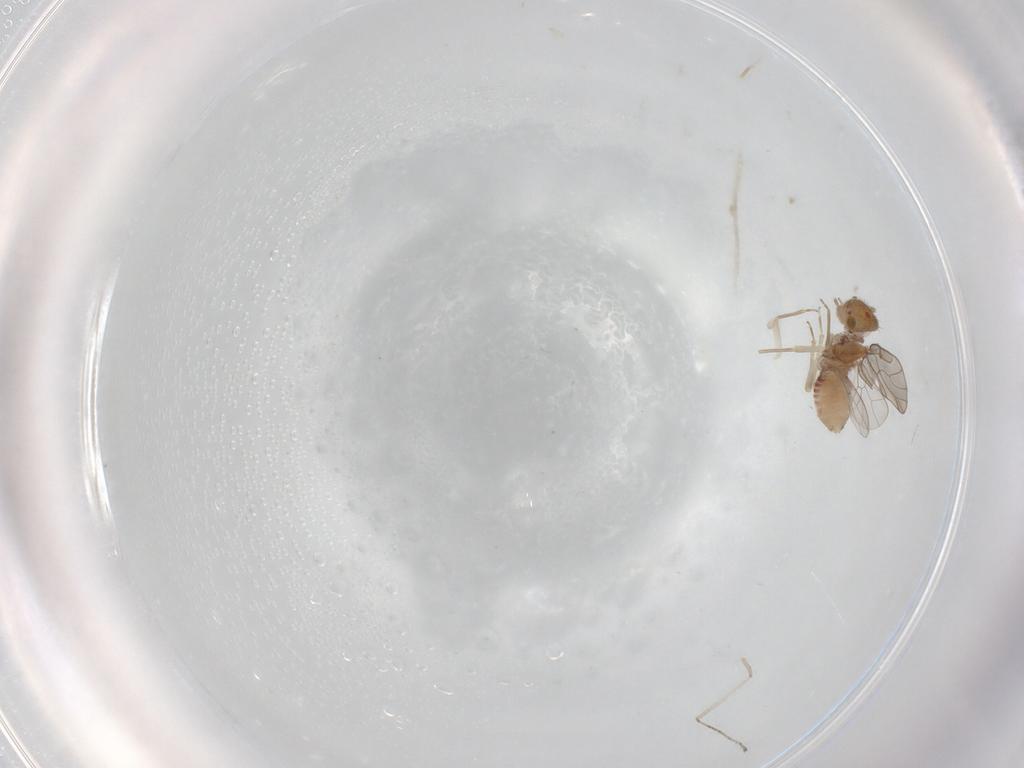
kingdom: Animalia
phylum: Arthropoda
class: Insecta
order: Psocodea
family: Ectopsocidae
